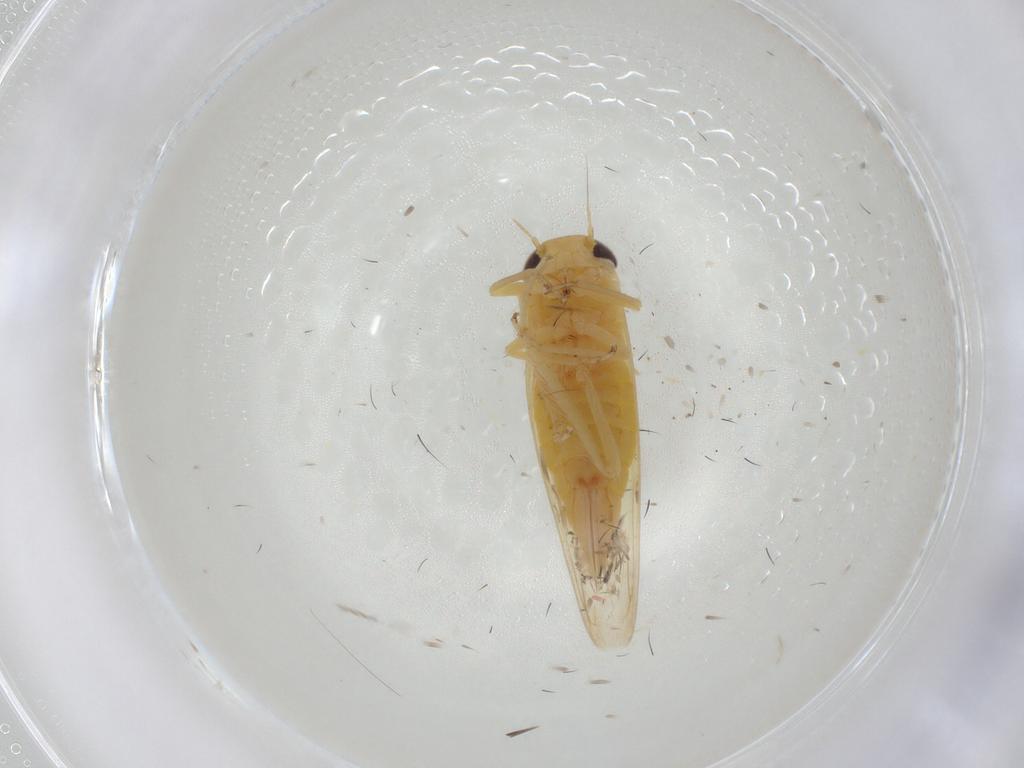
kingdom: Animalia
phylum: Arthropoda
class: Insecta
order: Hemiptera
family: Cicadellidae
